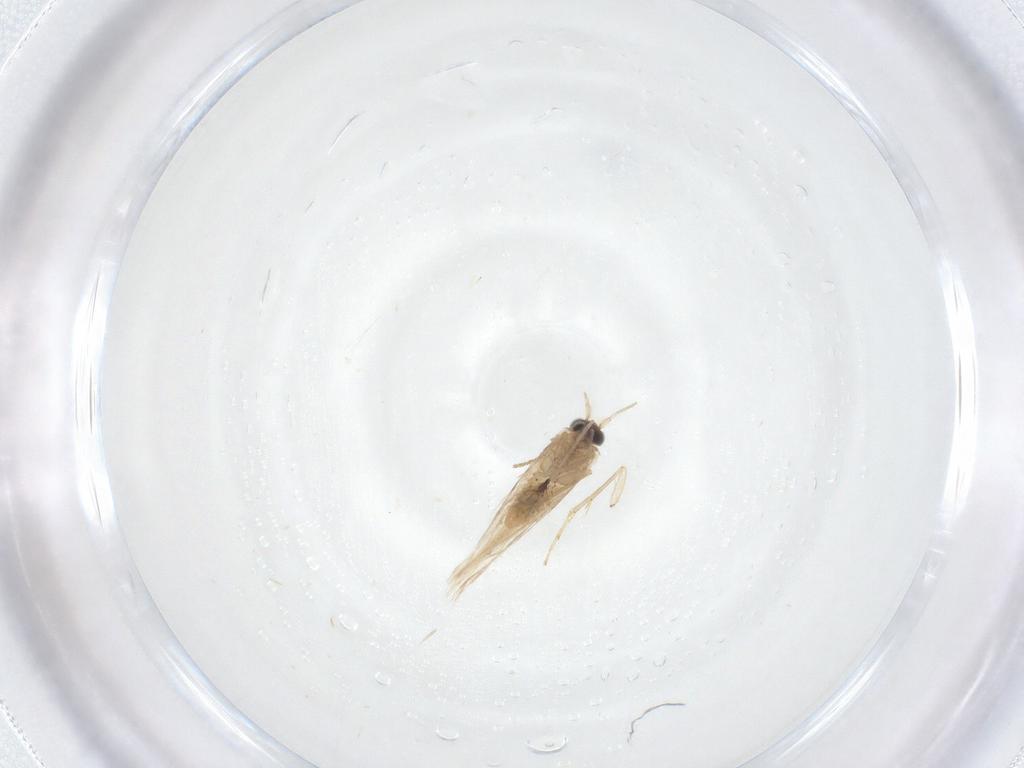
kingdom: Animalia
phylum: Arthropoda
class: Insecta
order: Lepidoptera
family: Nepticulidae
